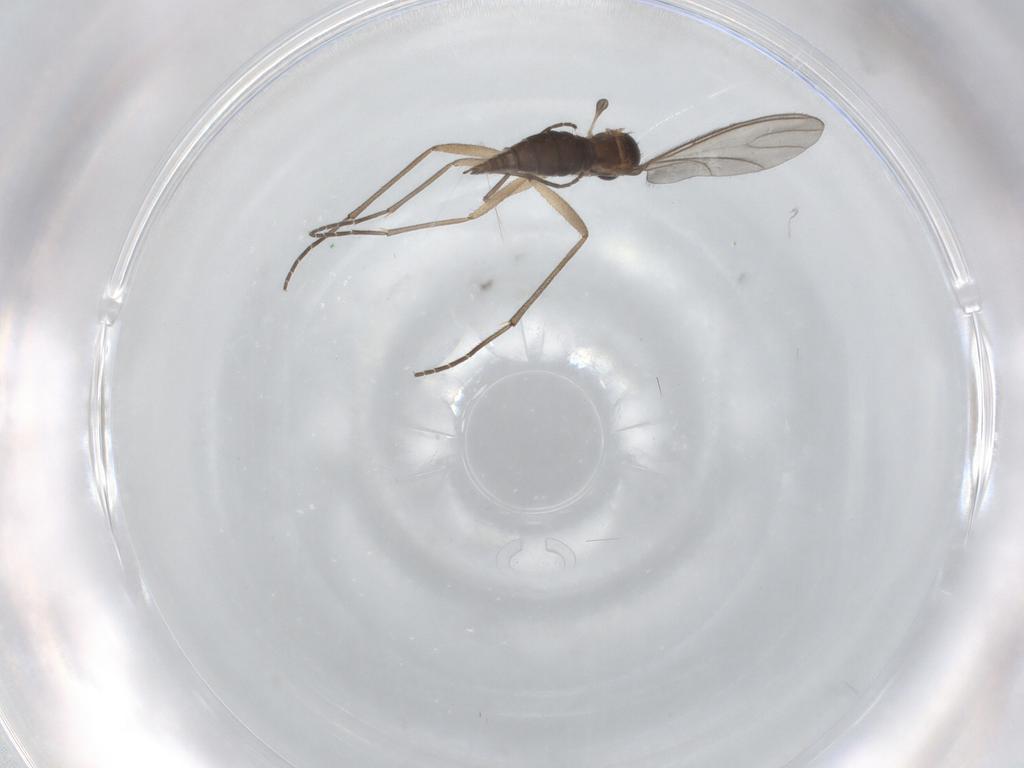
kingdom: Animalia
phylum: Arthropoda
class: Insecta
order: Diptera
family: Sciaridae
